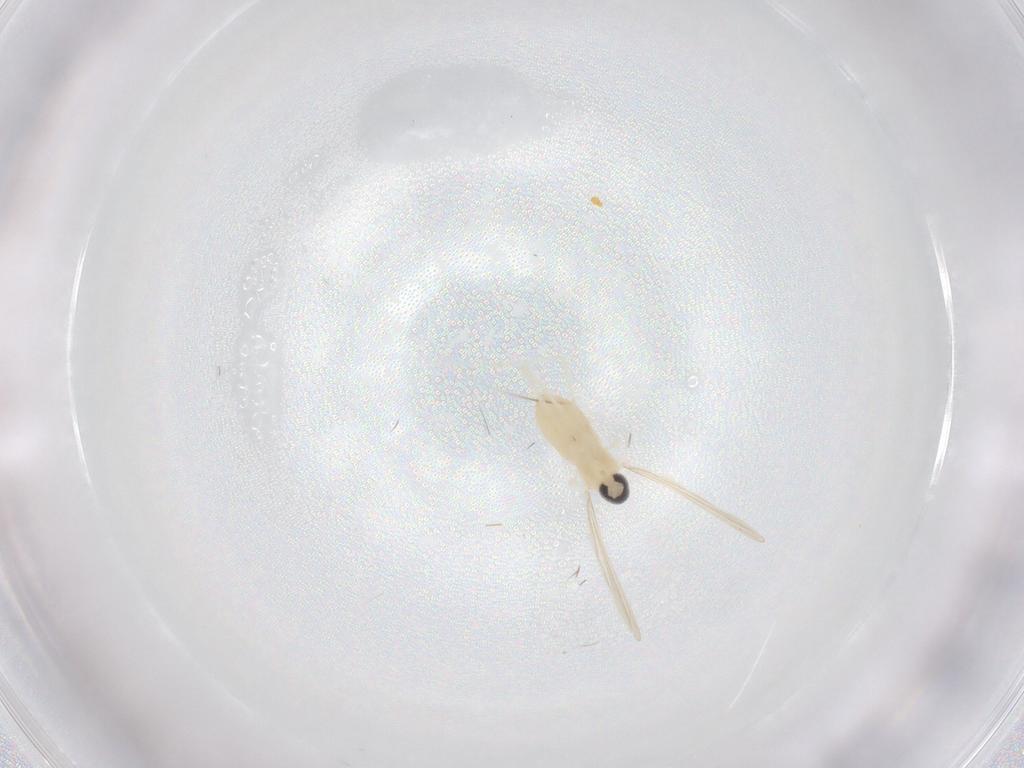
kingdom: Animalia
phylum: Arthropoda
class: Insecta
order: Diptera
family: Cecidomyiidae
